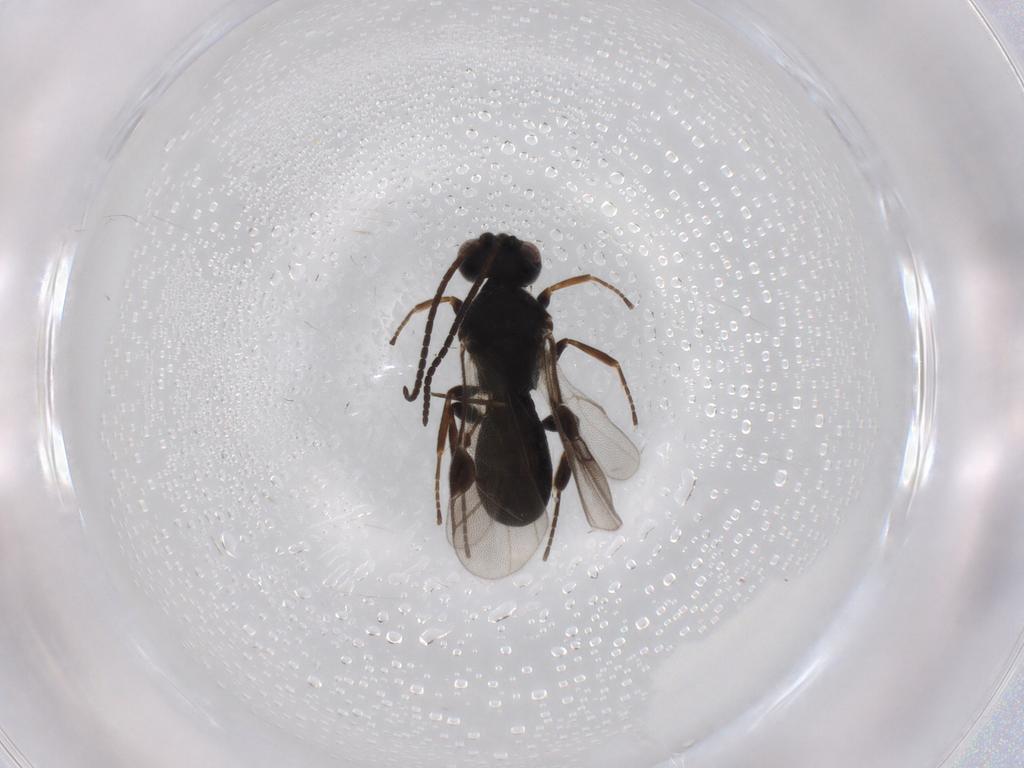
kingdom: Animalia
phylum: Arthropoda
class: Insecta
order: Hymenoptera
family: Braconidae
